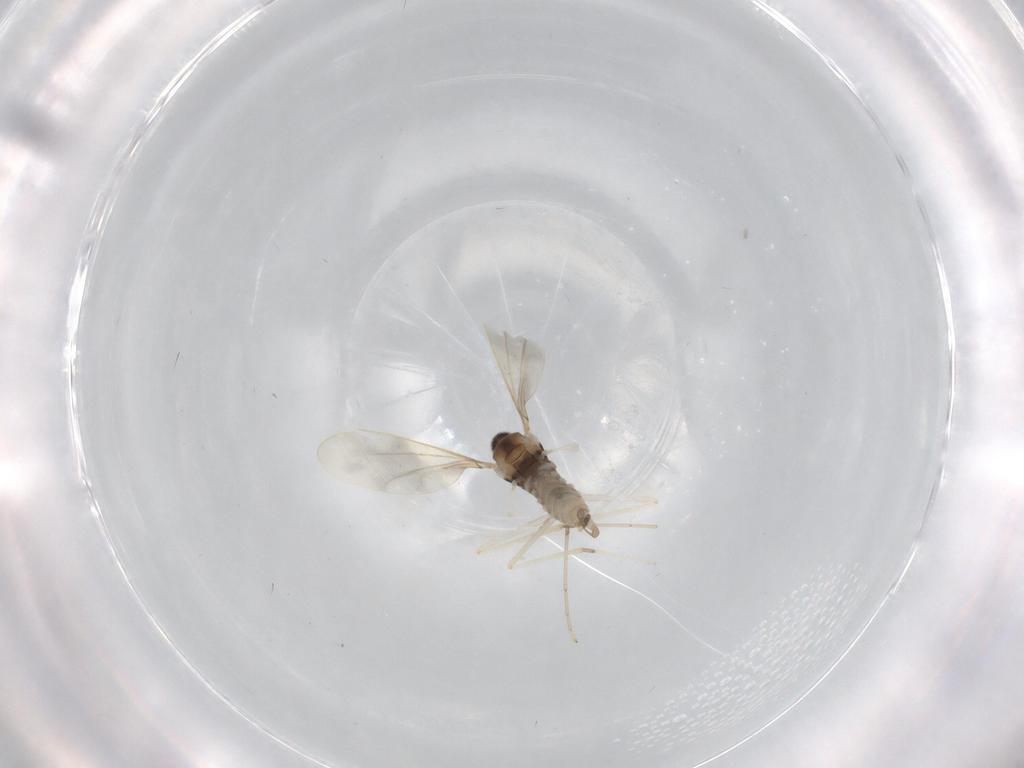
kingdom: Animalia
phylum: Arthropoda
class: Insecta
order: Diptera
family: Cecidomyiidae
